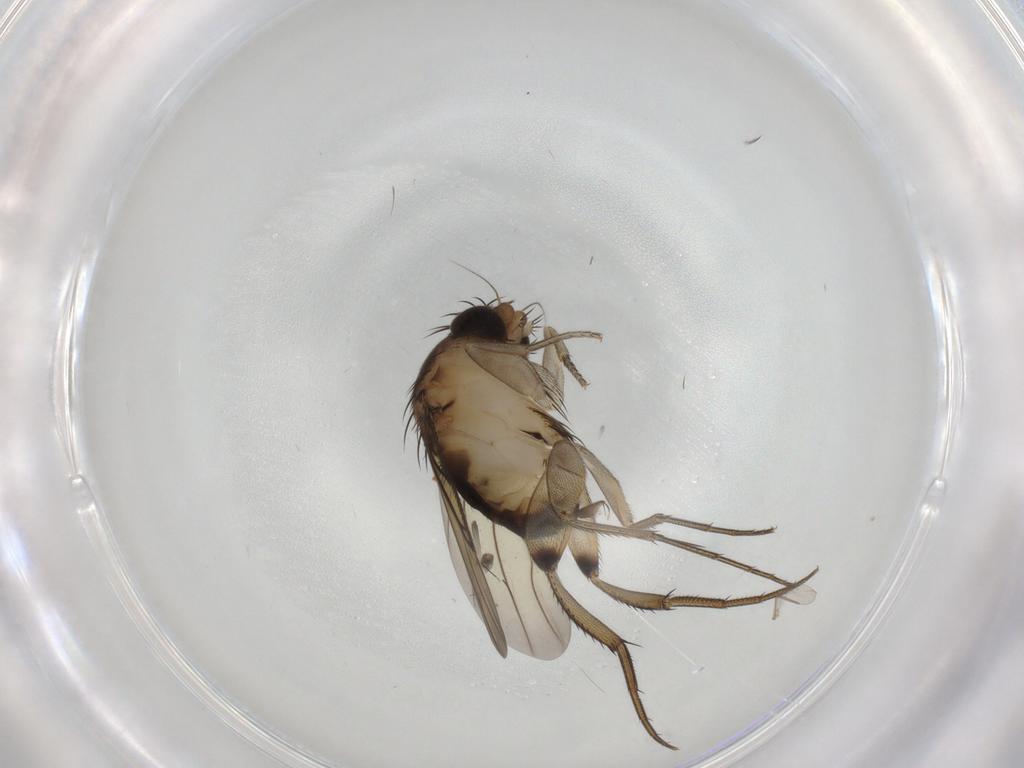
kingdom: Animalia
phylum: Arthropoda
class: Insecta
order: Diptera
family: Phoridae
